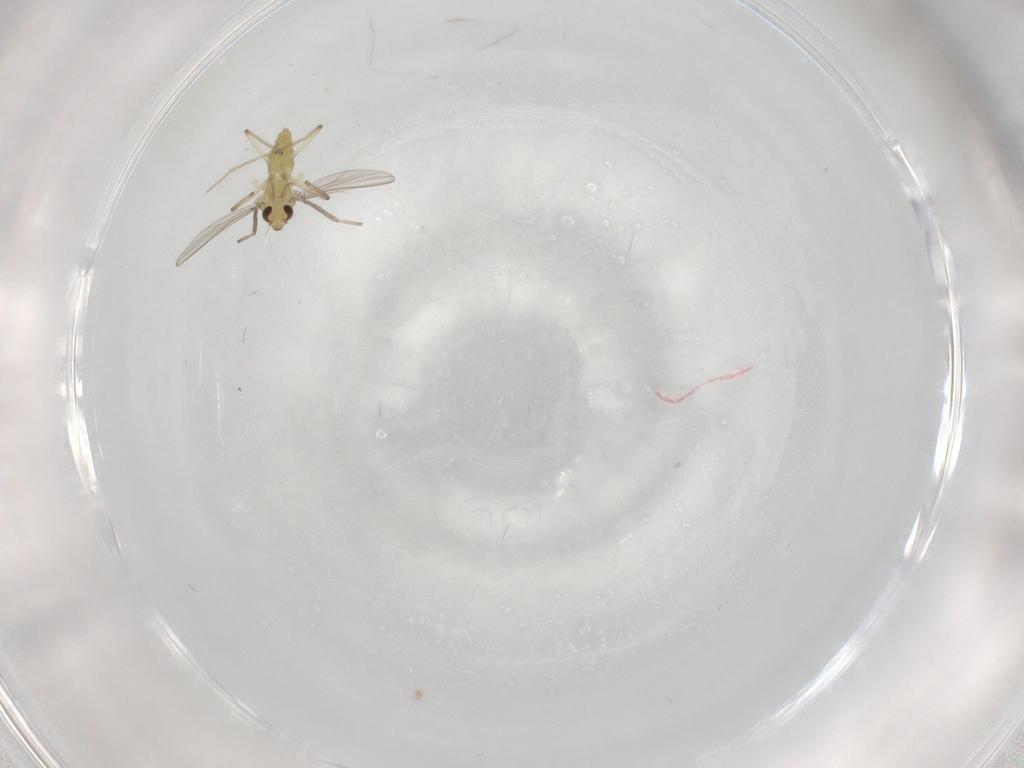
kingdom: Animalia
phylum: Arthropoda
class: Insecta
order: Diptera
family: Chironomidae
